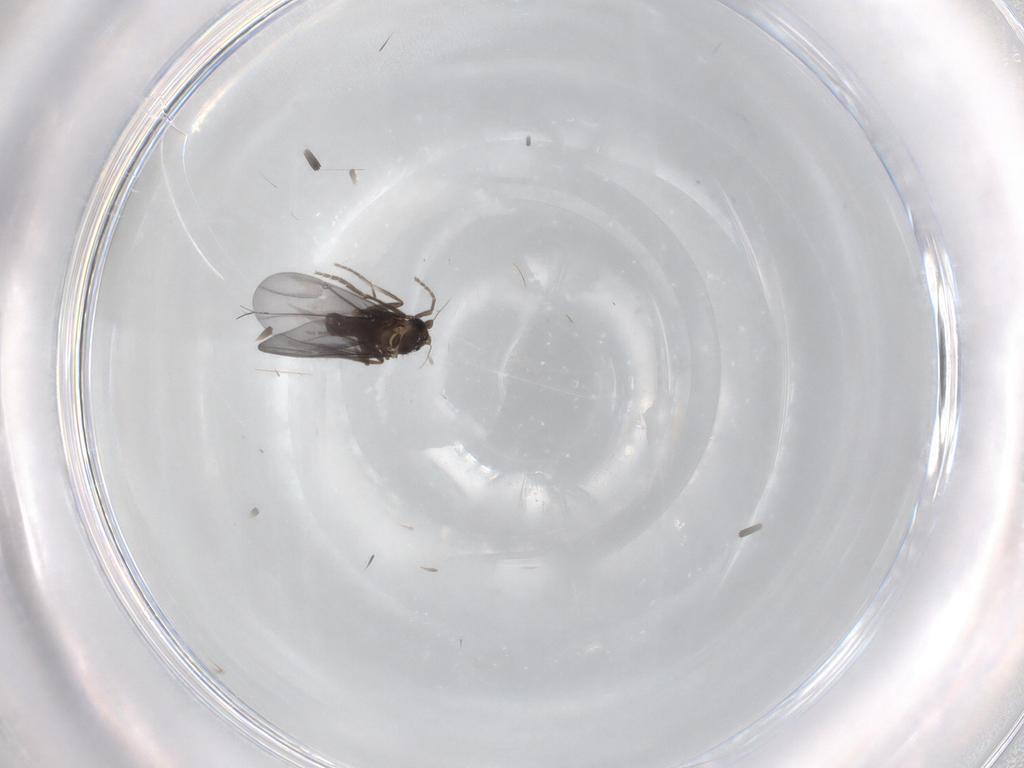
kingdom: Animalia
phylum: Arthropoda
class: Insecta
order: Diptera
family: Phoridae
